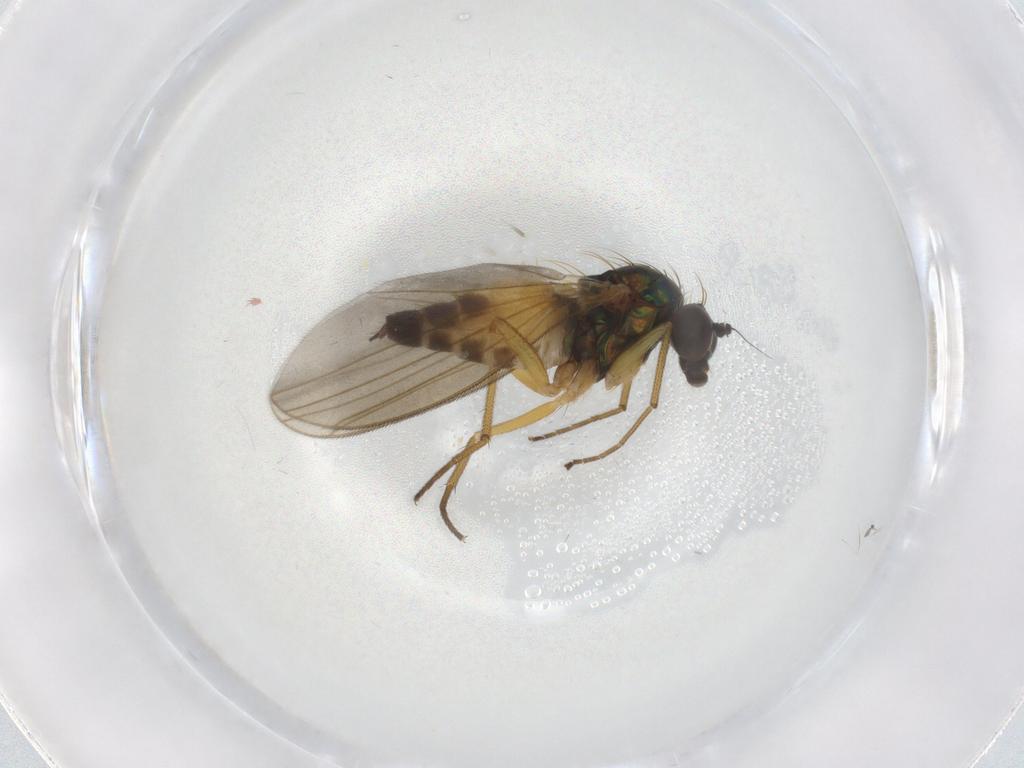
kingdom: Animalia
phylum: Arthropoda
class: Insecta
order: Diptera
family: Dolichopodidae
